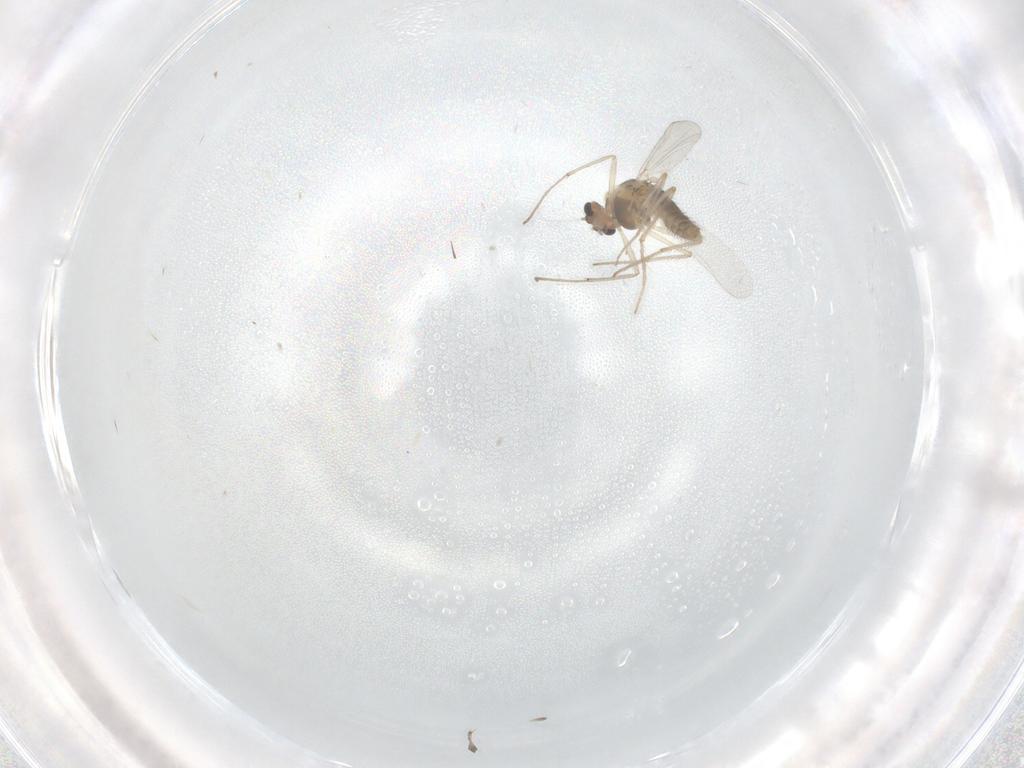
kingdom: Animalia
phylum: Arthropoda
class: Insecta
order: Diptera
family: Chironomidae
